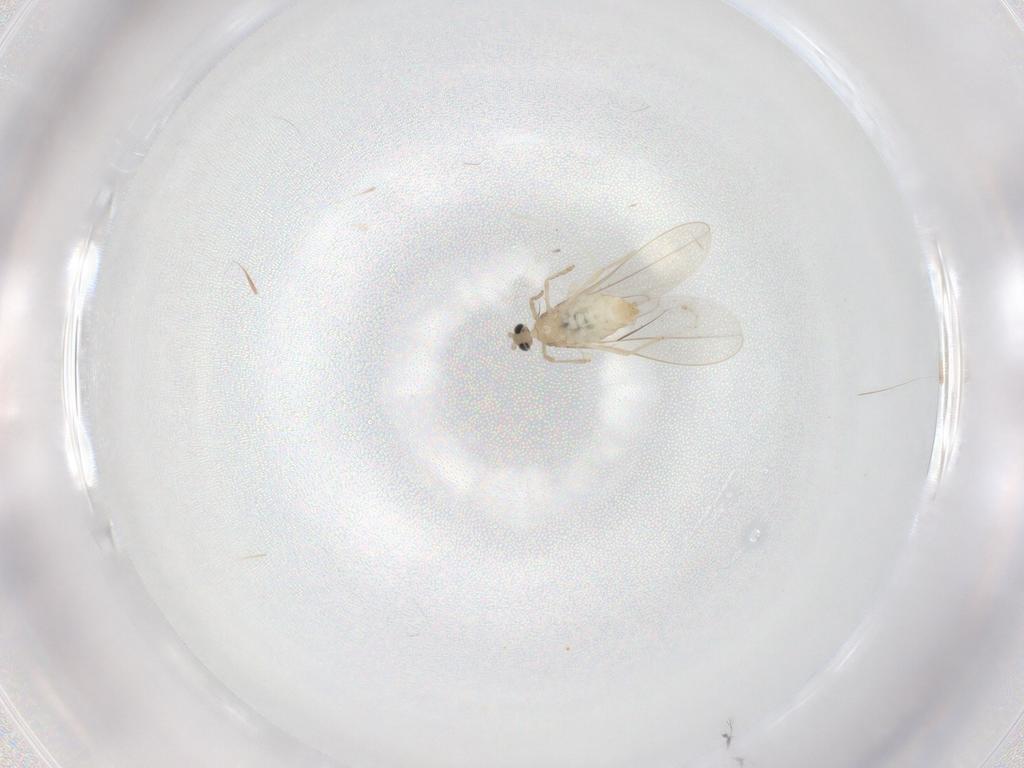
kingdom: Animalia
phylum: Arthropoda
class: Insecta
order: Diptera
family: Cecidomyiidae
